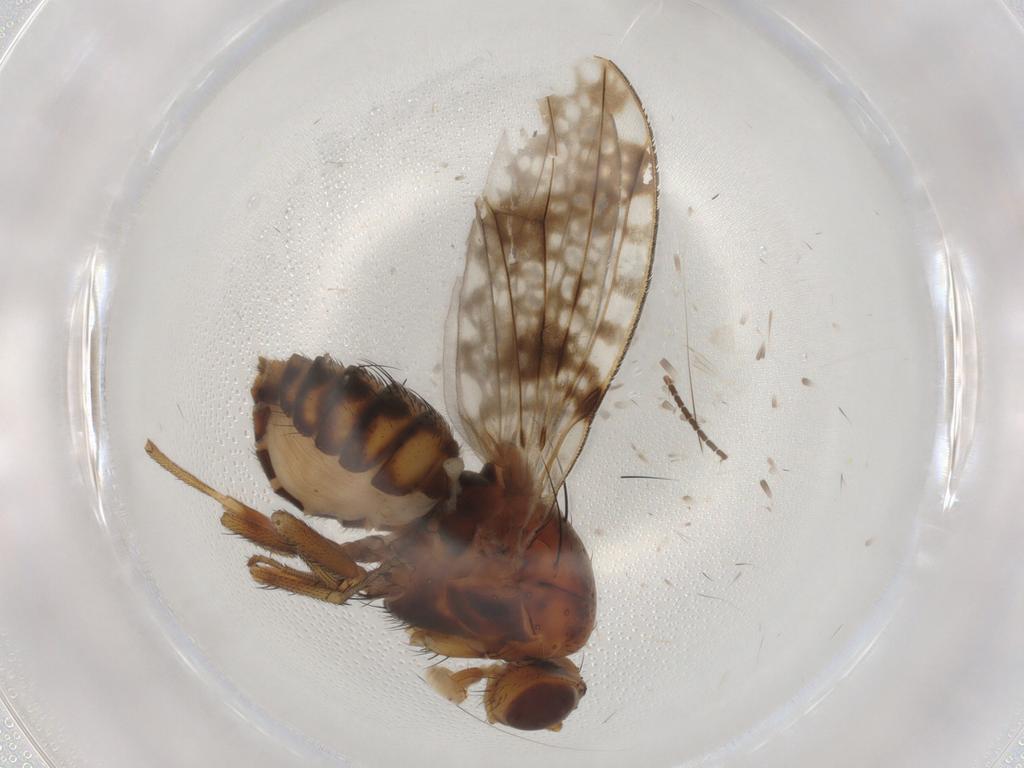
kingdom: Animalia
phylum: Arthropoda
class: Insecta
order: Diptera
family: Lauxaniidae
